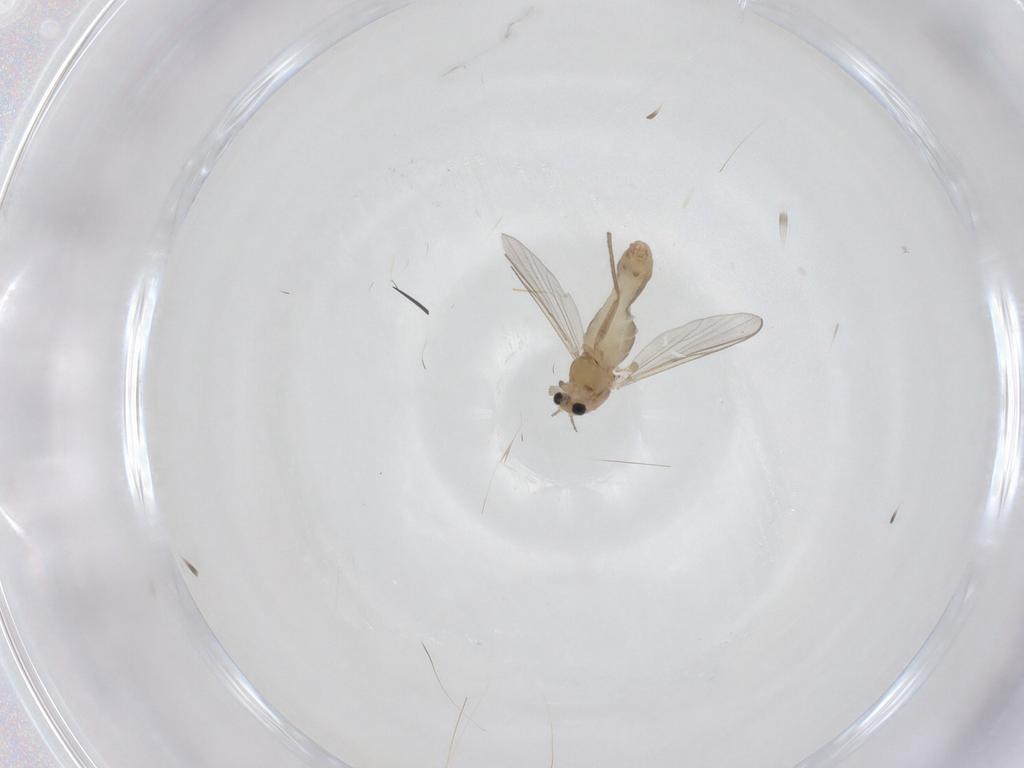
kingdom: Animalia
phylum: Arthropoda
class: Insecta
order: Diptera
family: Chironomidae
